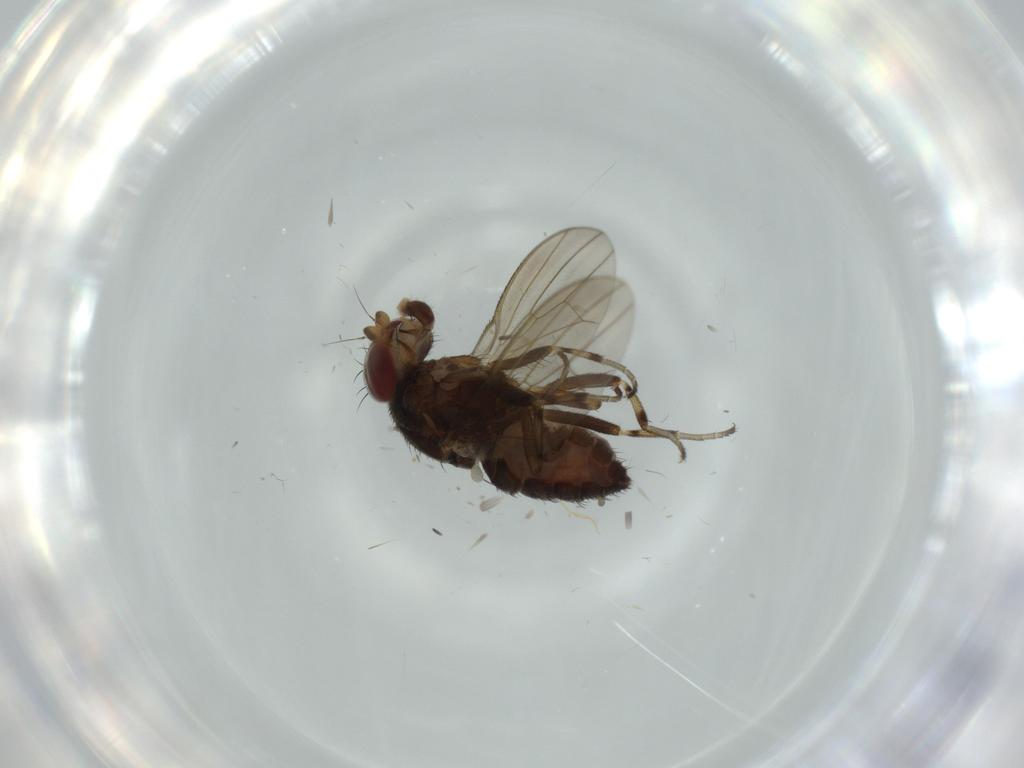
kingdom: Animalia
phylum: Arthropoda
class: Insecta
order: Diptera
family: Heleomyzidae
